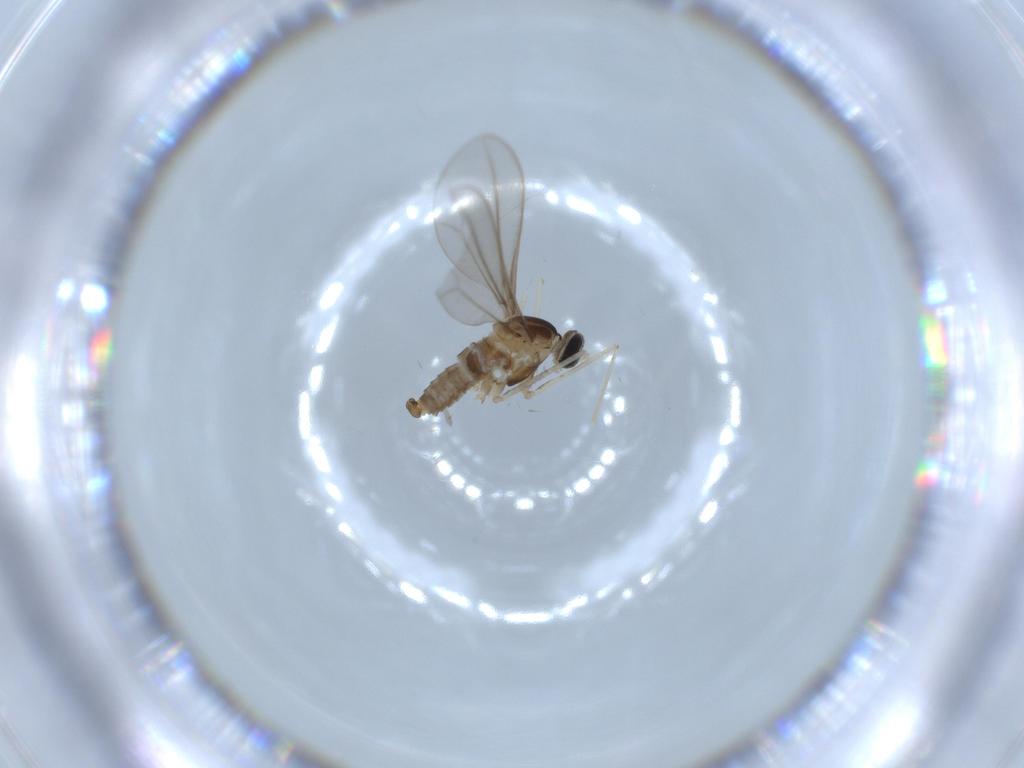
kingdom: Animalia
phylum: Arthropoda
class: Insecta
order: Diptera
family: Cecidomyiidae
